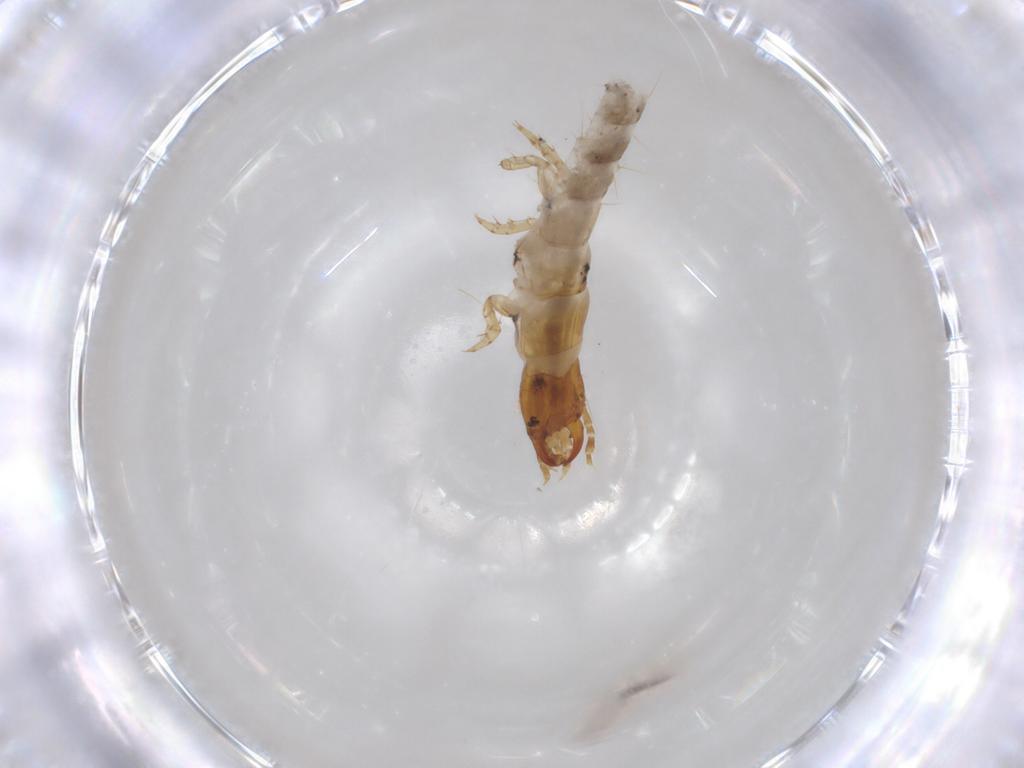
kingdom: Animalia
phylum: Arthropoda
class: Insecta
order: Coleoptera
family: Carabidae
